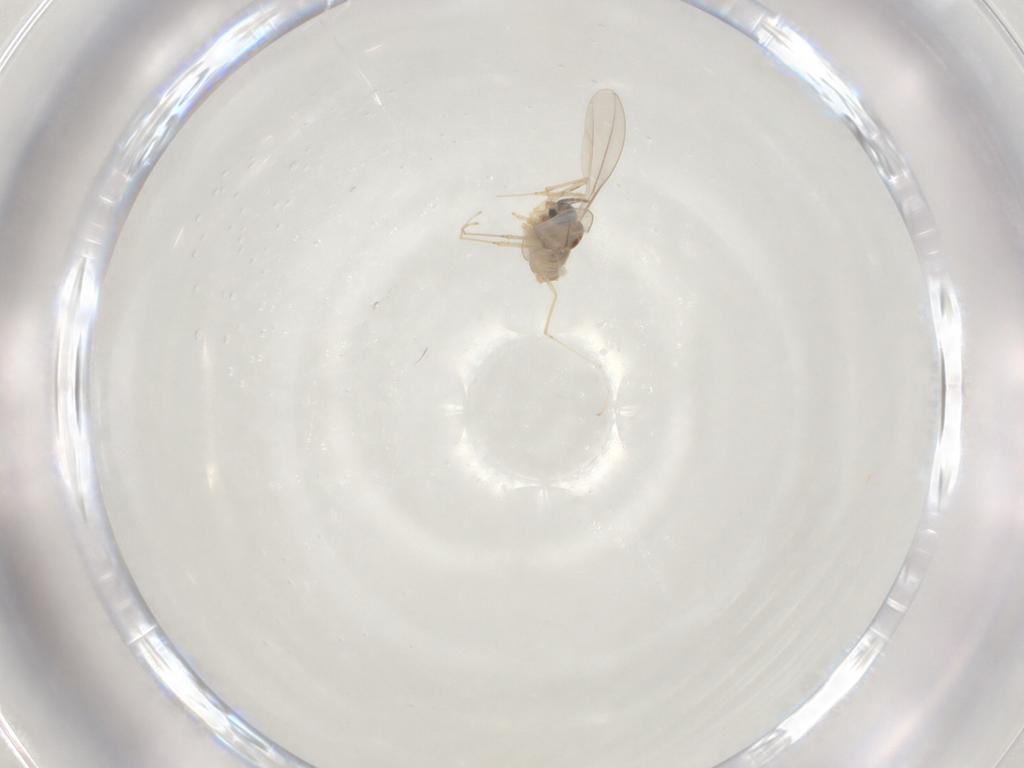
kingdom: Animalia
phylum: Arthropoda
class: Insecta
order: Diptera
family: Cecidomyiidae
